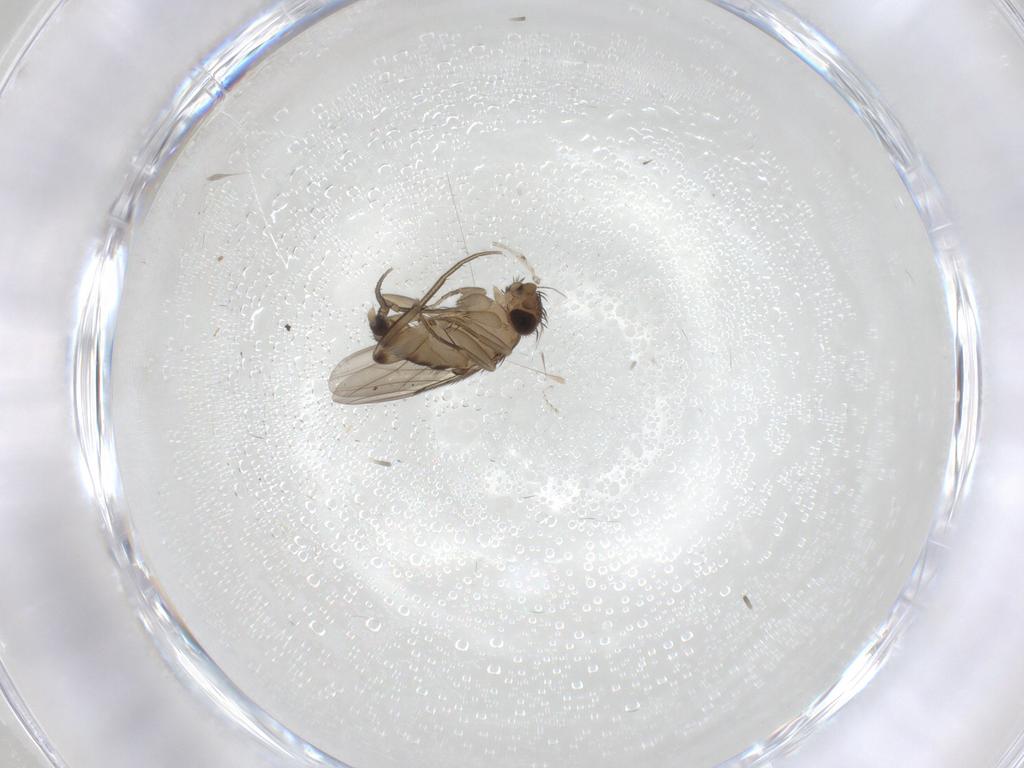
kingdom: Animalia
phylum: Arthropoda
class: Insecta
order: Diptera
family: Phoridae
